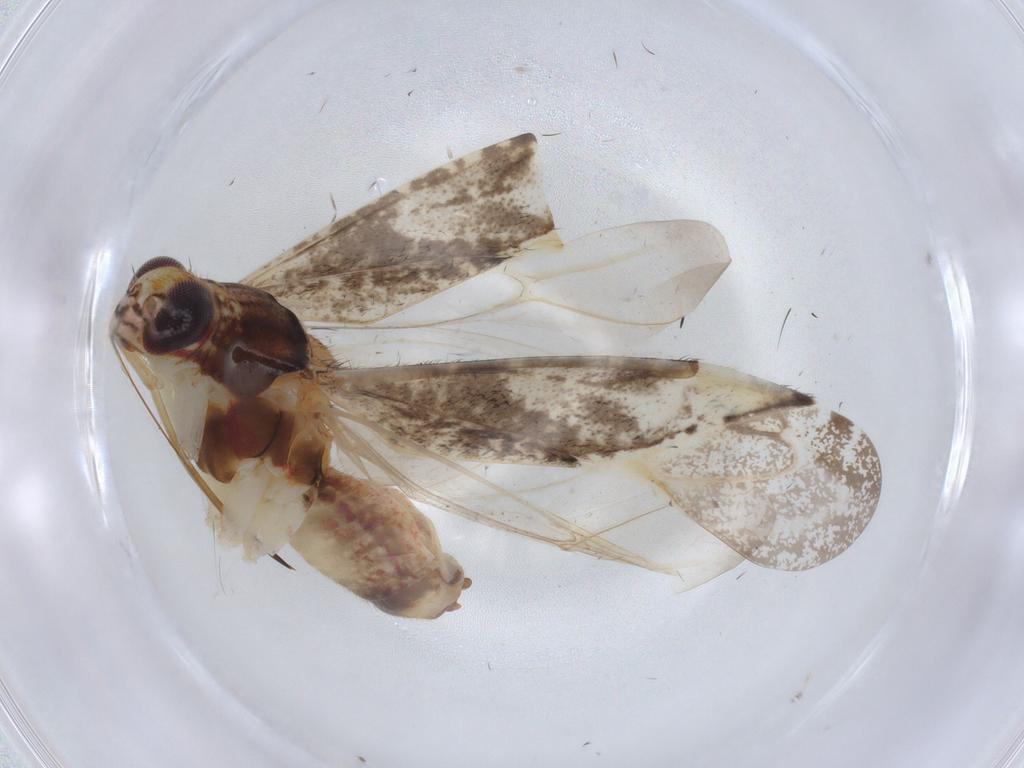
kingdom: Animalia
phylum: Arthropoda
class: Insecta
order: Hemiptera
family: Miridae
